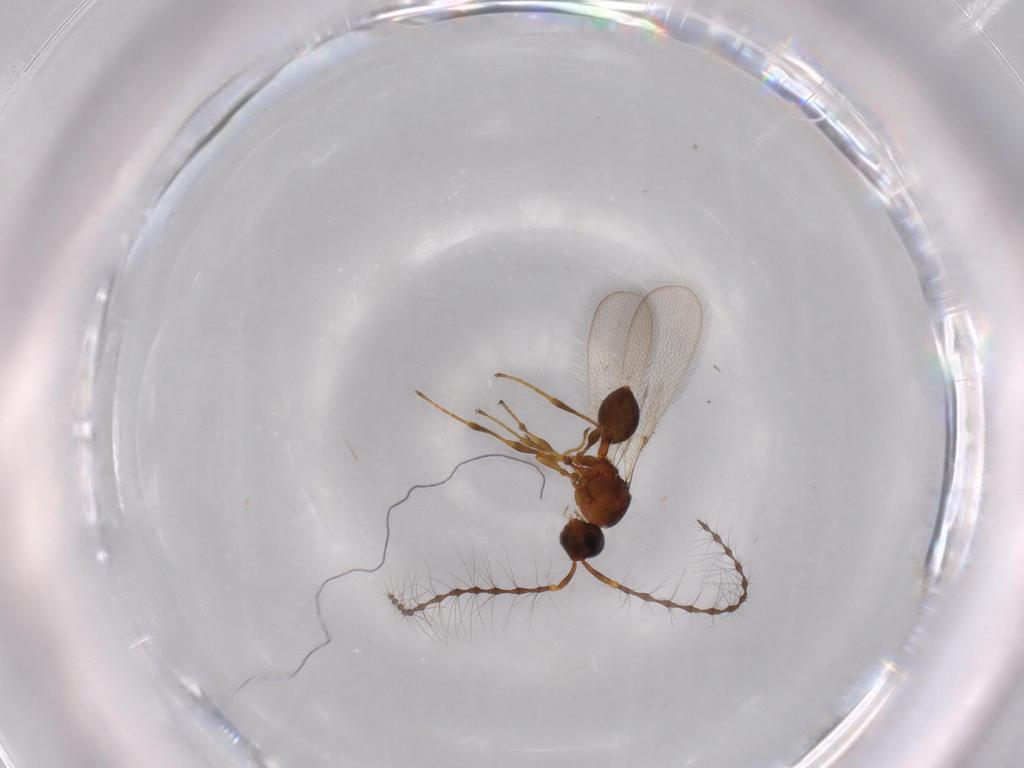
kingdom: Animalia
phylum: Arthropoda
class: Insecta
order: Hymenoptera
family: Diapriidae
